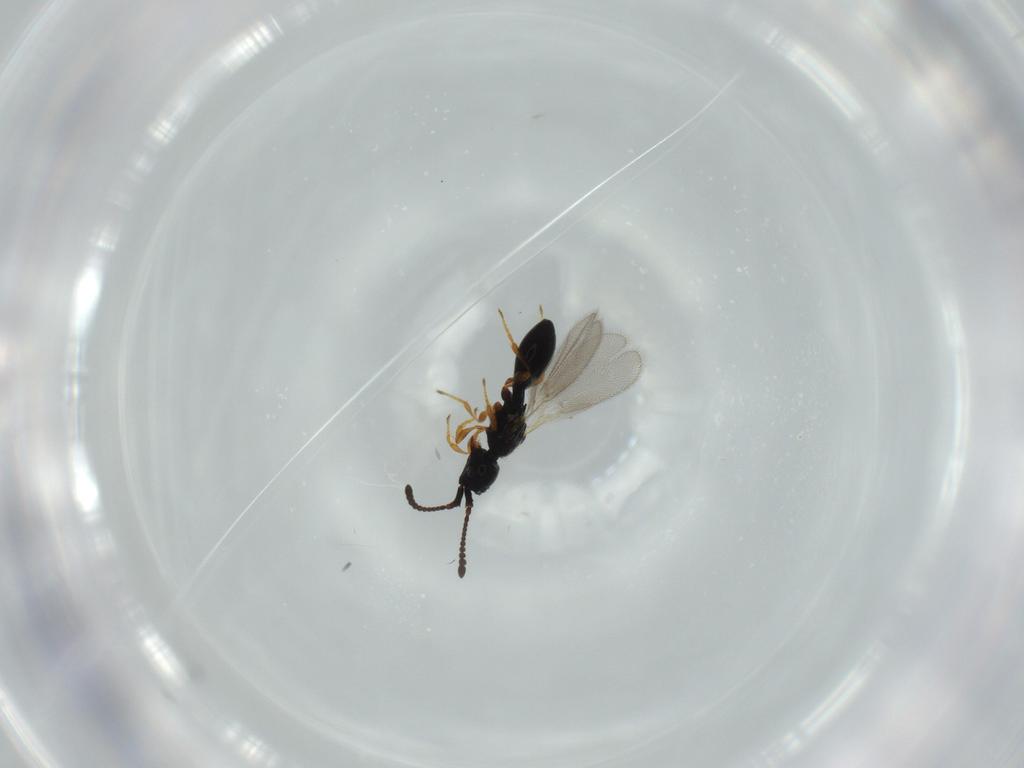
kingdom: Animalia
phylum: Arthropoda
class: Insecta
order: Hymenoptera
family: Diapriidae
